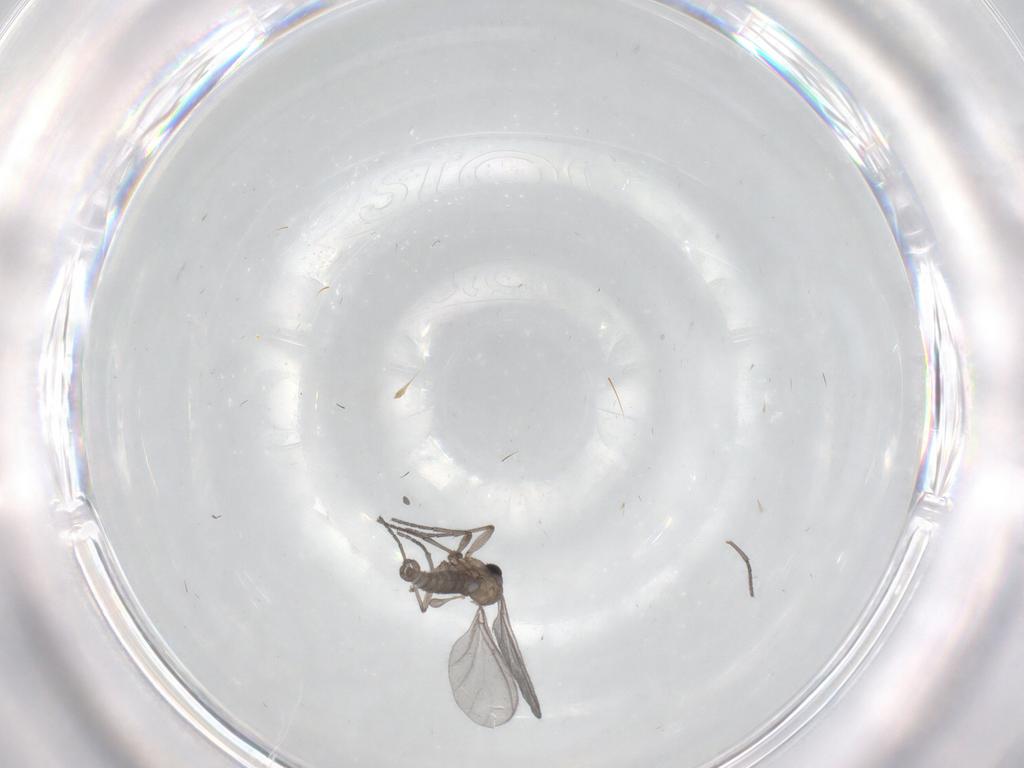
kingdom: Animalia
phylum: Arthropoda
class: Insecta
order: Diptera
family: Sciaridae
